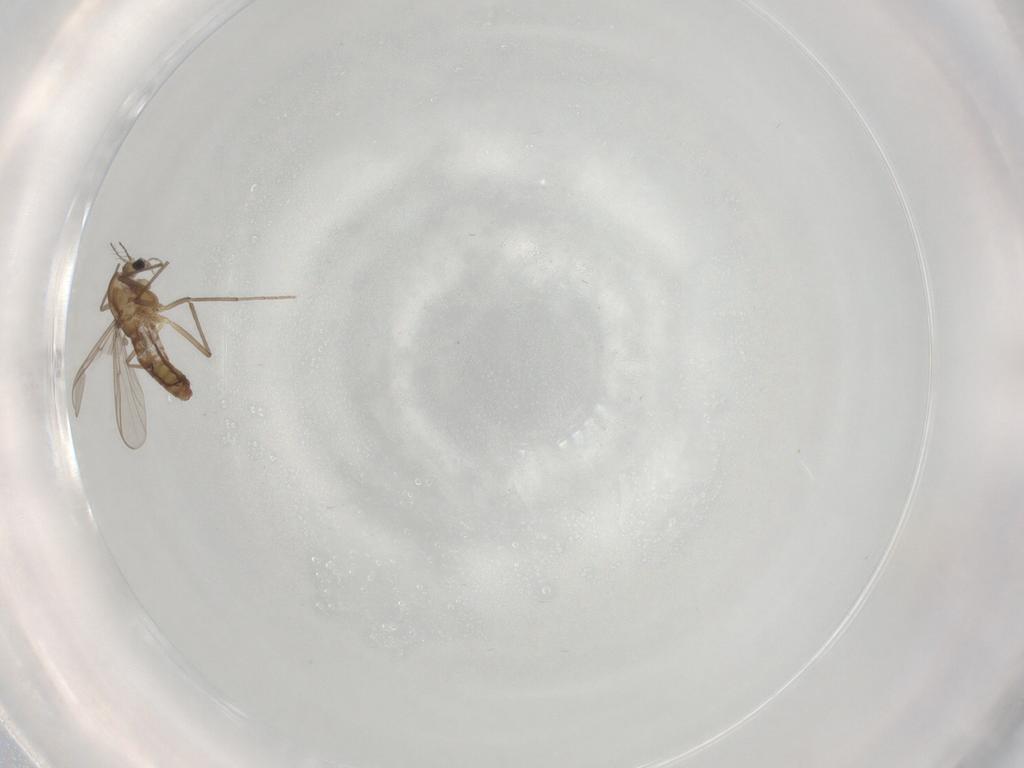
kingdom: Animalia
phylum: Arthropoda
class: Insecta
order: Diptera
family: Chironomidae
